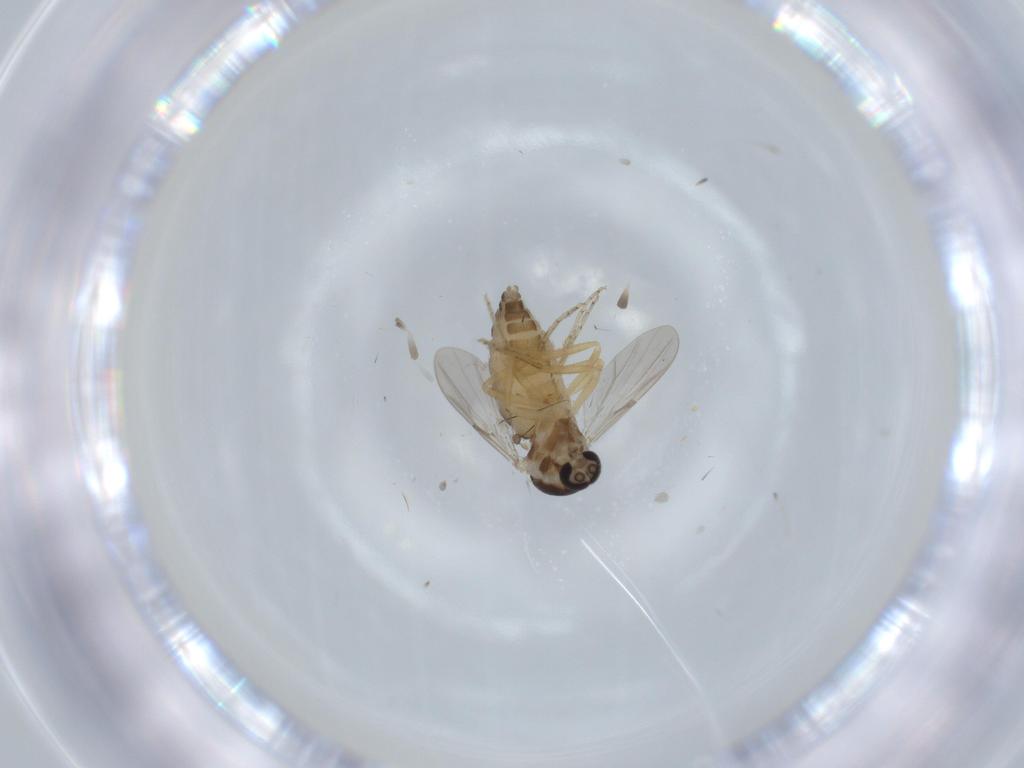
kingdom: Animalia
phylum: Arthropoda
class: Insecta
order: Diptera
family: Ceratopogonidae
